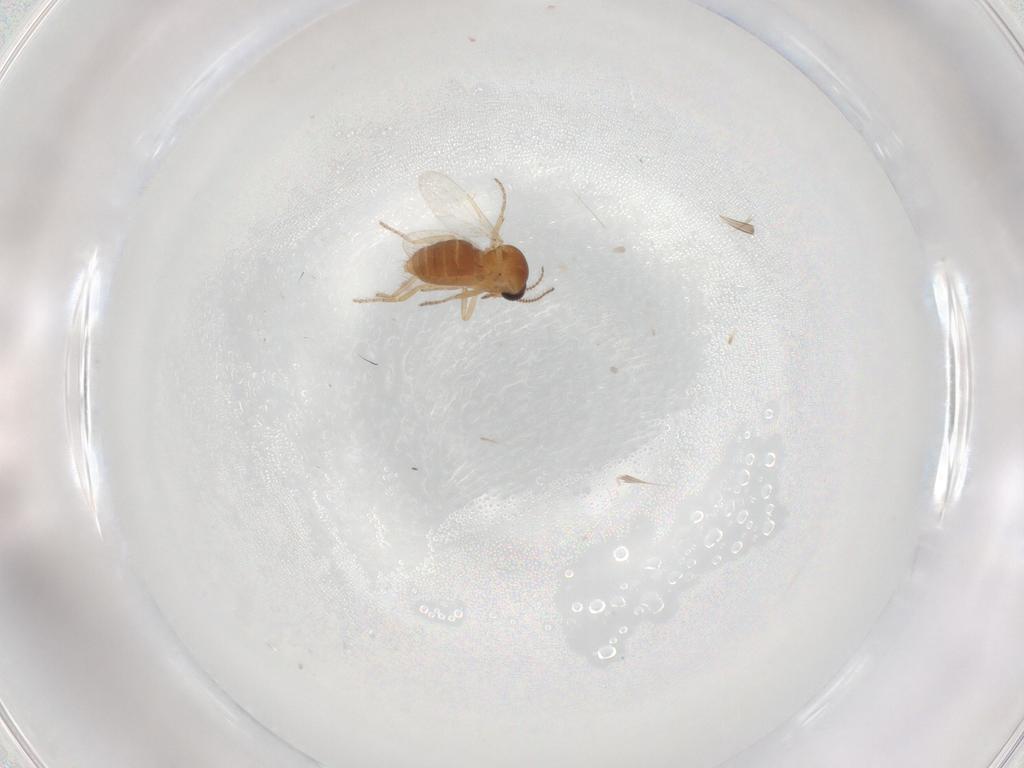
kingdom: Animalia
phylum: Arthropoda
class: Insecta
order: Diptera
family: Ceratopogonidae
